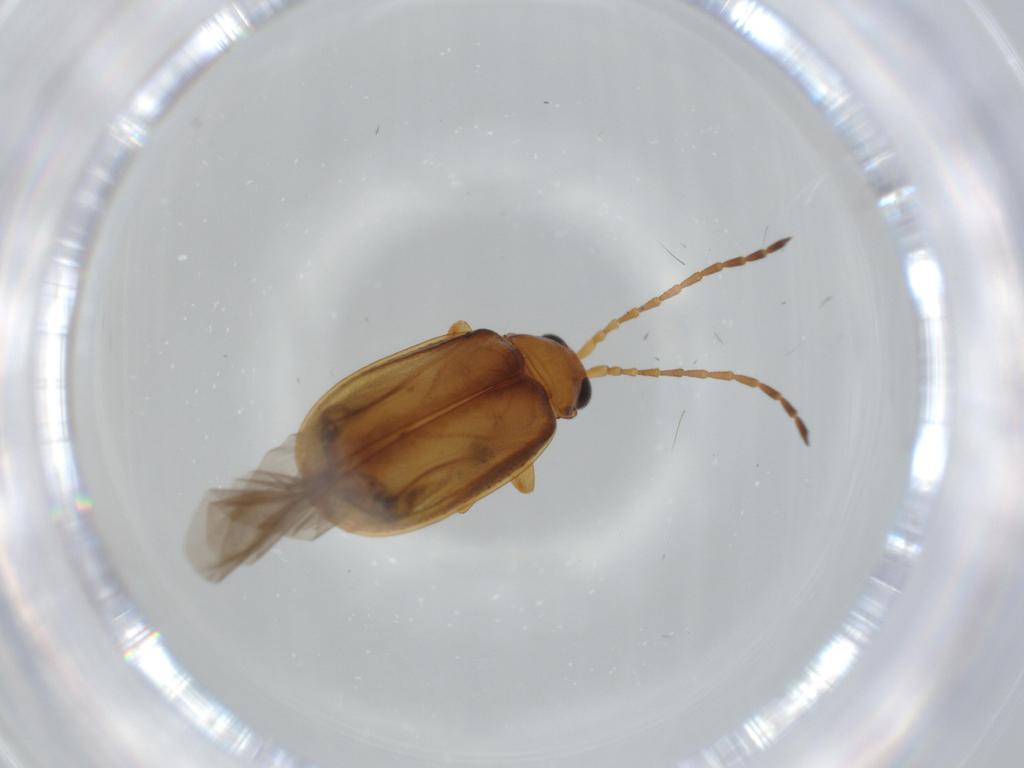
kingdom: Animalia
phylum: Arthropoda
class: Insecta
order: Coleoptera
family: Chrysomelidae
